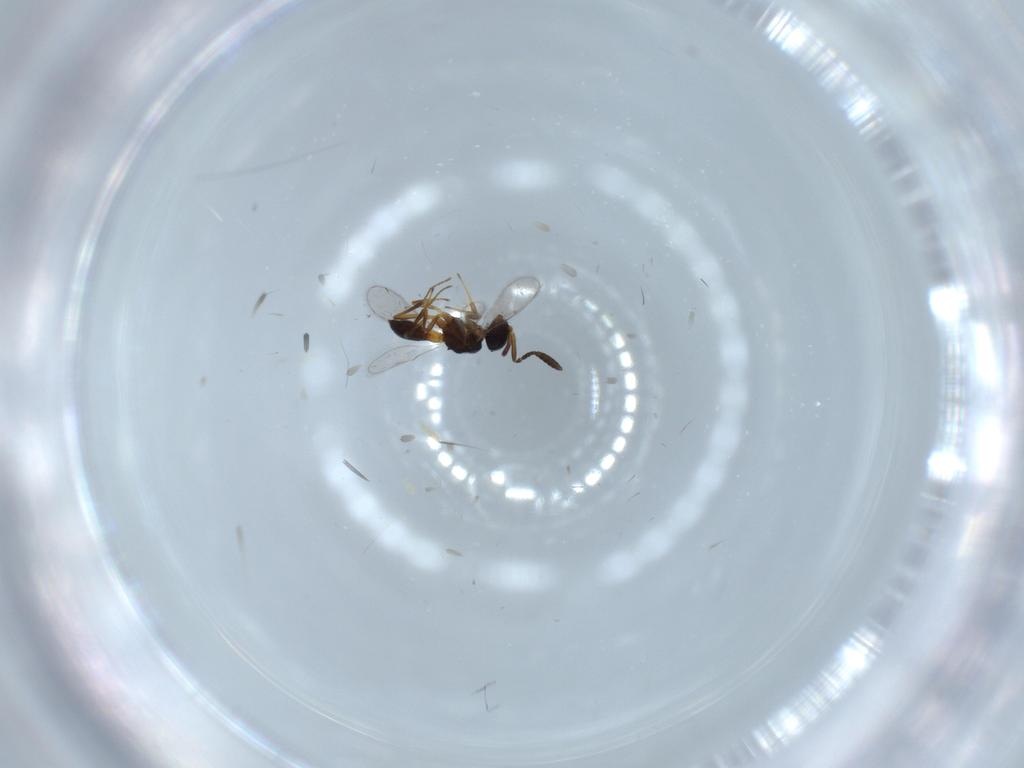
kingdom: Animalia
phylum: Arthropoda
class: Insecta
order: Hymenoptera
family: Scelionidae
